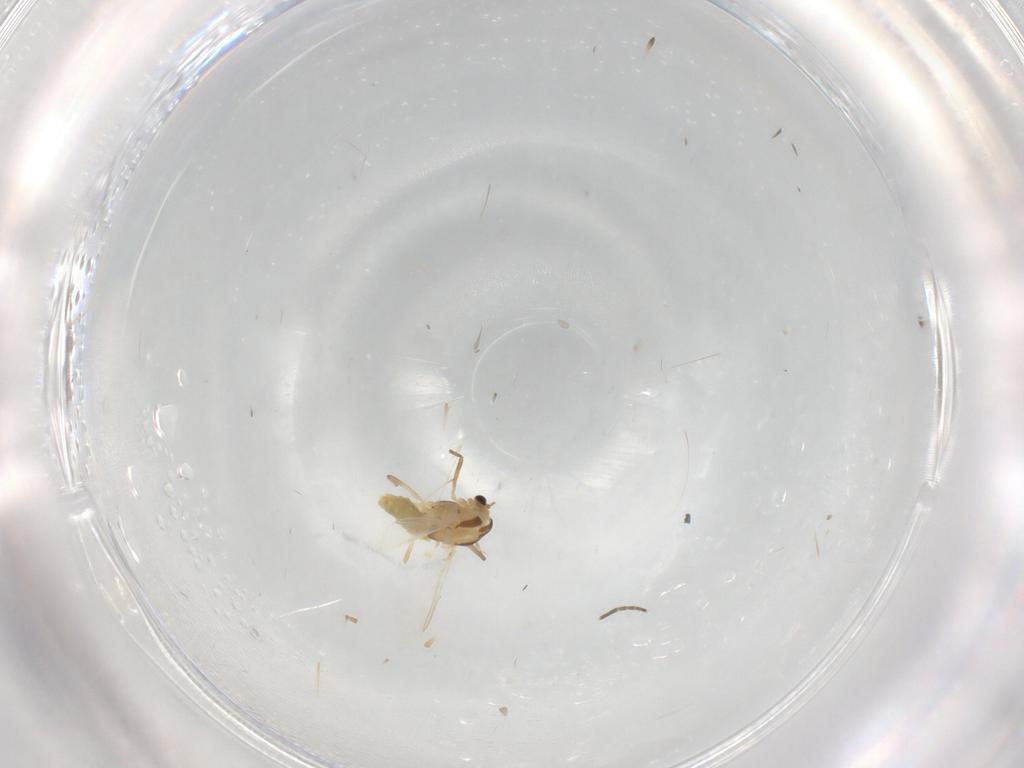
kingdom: Animalia
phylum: Arthropoda
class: Insecta
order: Diptera
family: Chironomidae
